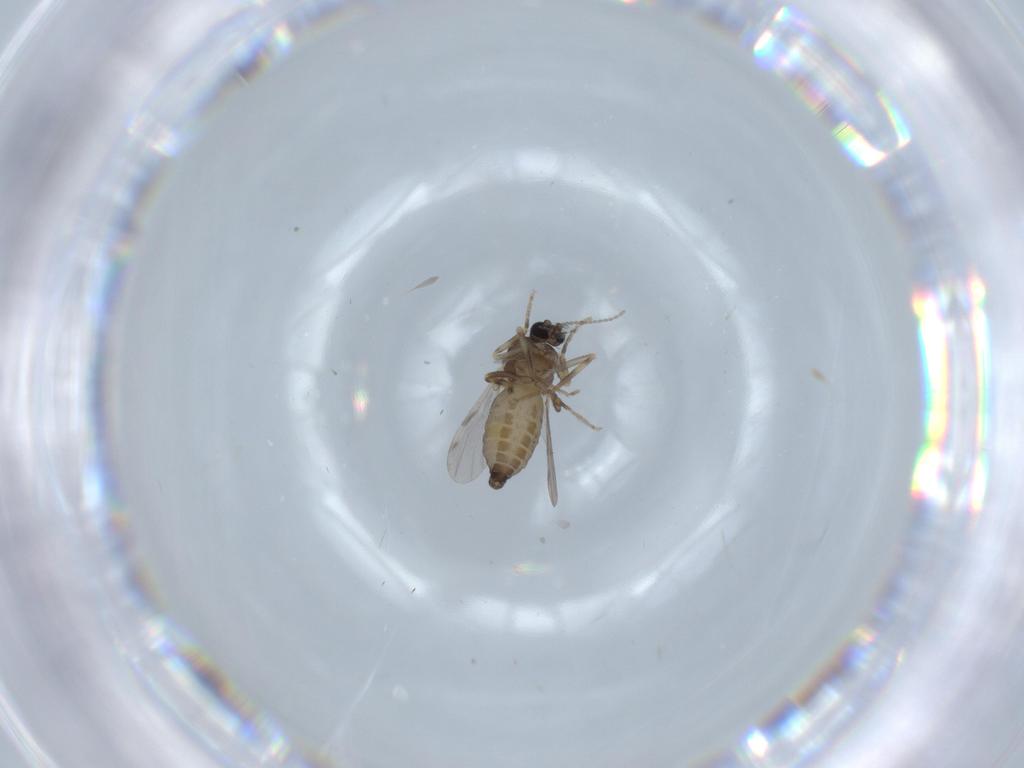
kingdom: Animalia
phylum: Arthropoda
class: Insecta
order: Diptera
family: Ceratopogonidae
